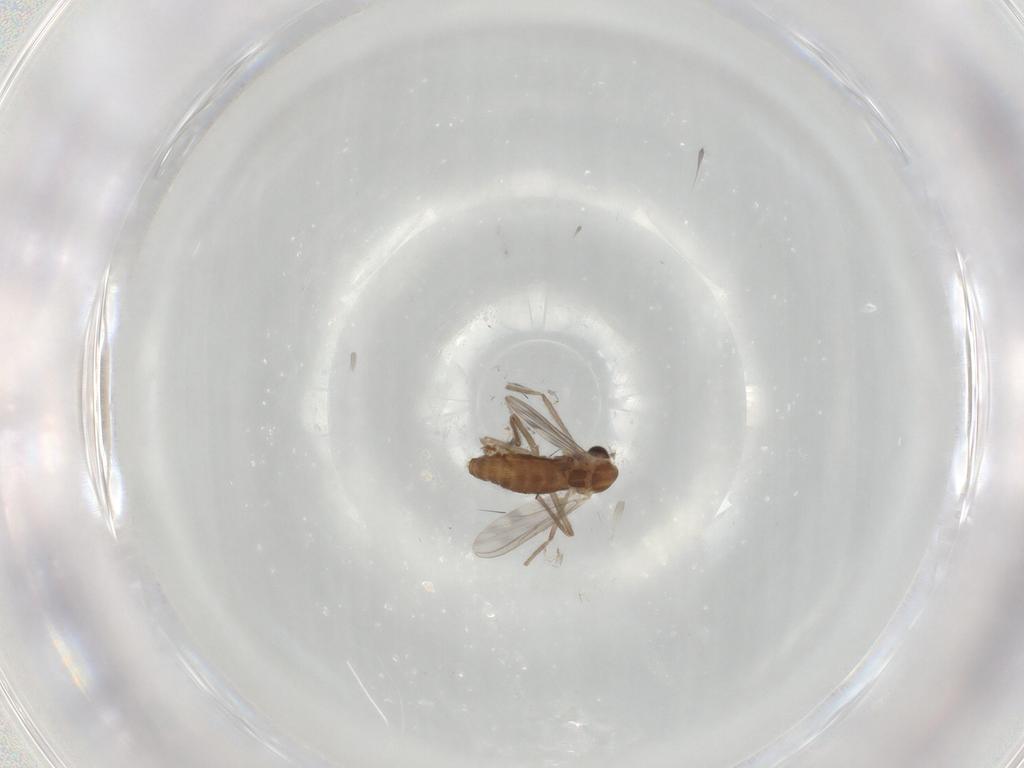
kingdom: Animalia
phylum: Arthropoda
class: Insecta
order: Diptera
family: Chironomidae
